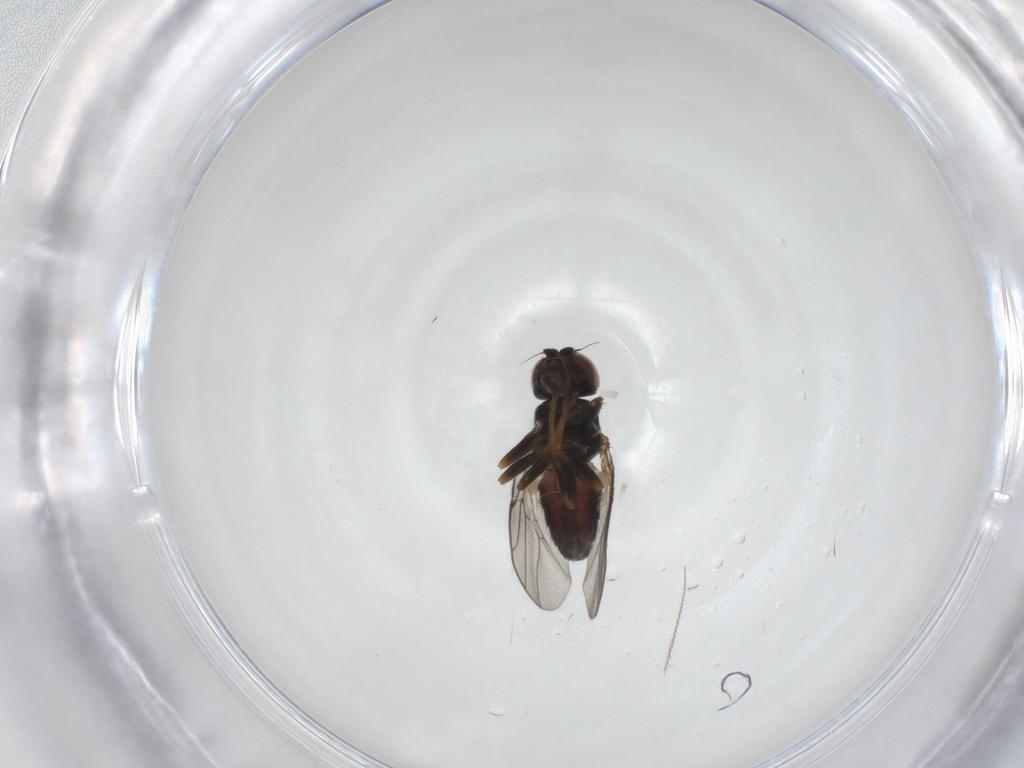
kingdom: Animalia
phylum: Arthropoda
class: Insecta
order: Diptera
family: Chloropidae
